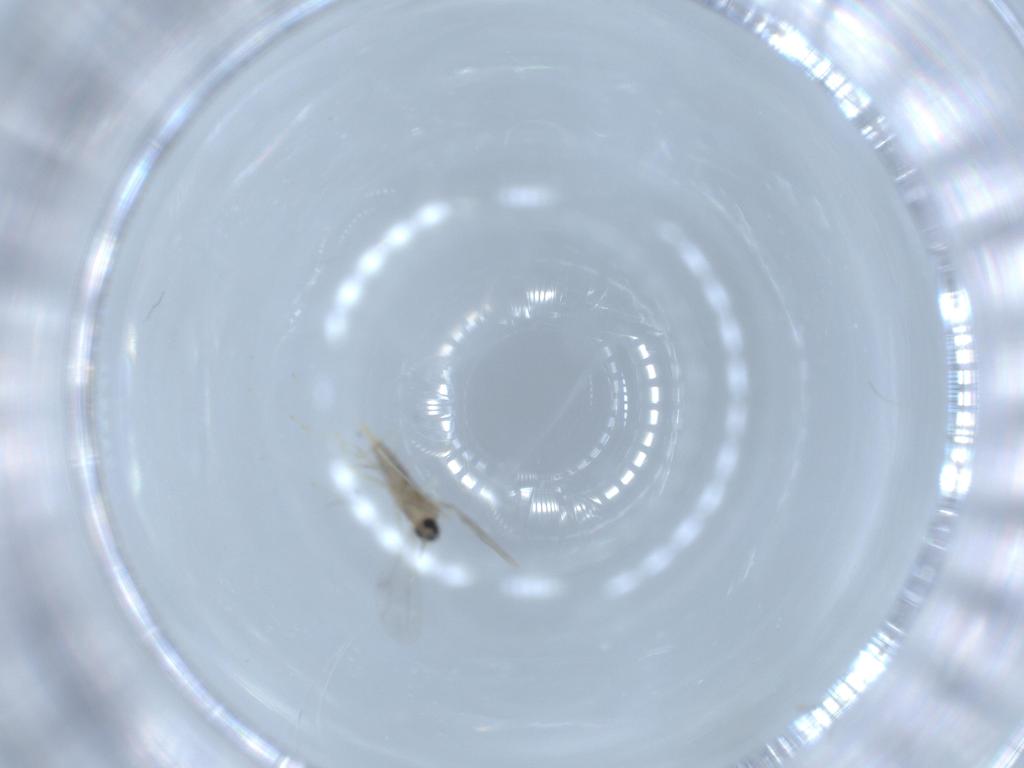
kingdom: Animalia
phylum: Arthropoda
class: Insecta
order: Diptera
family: Cecidomyiidae
